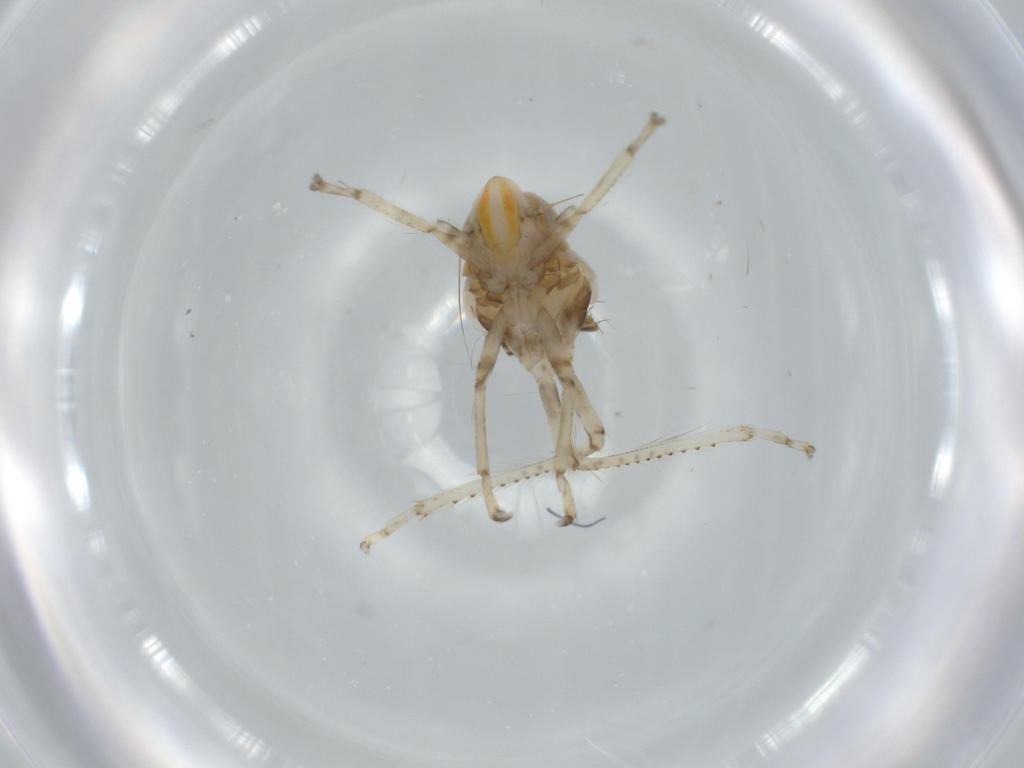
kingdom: Animalia
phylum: Arthropoda
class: Insecta
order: Hemiptera
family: Cicadellidae
